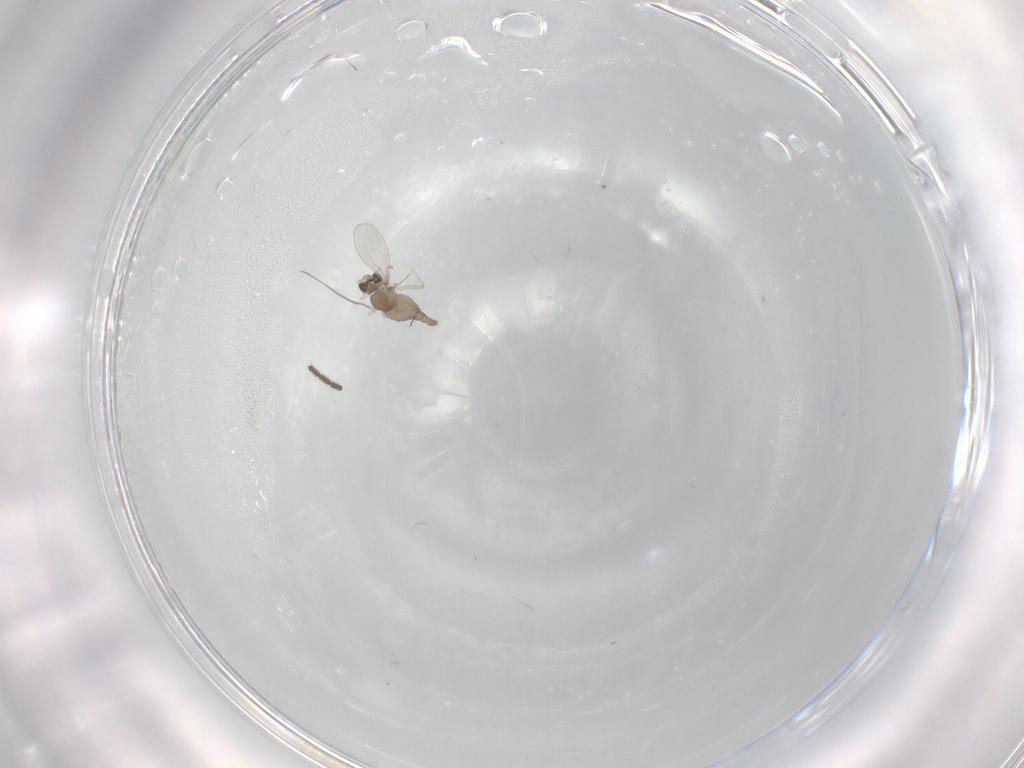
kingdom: Animalia
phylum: Arthropoda
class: Insecta
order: Diptera
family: Cecidomyiidae
